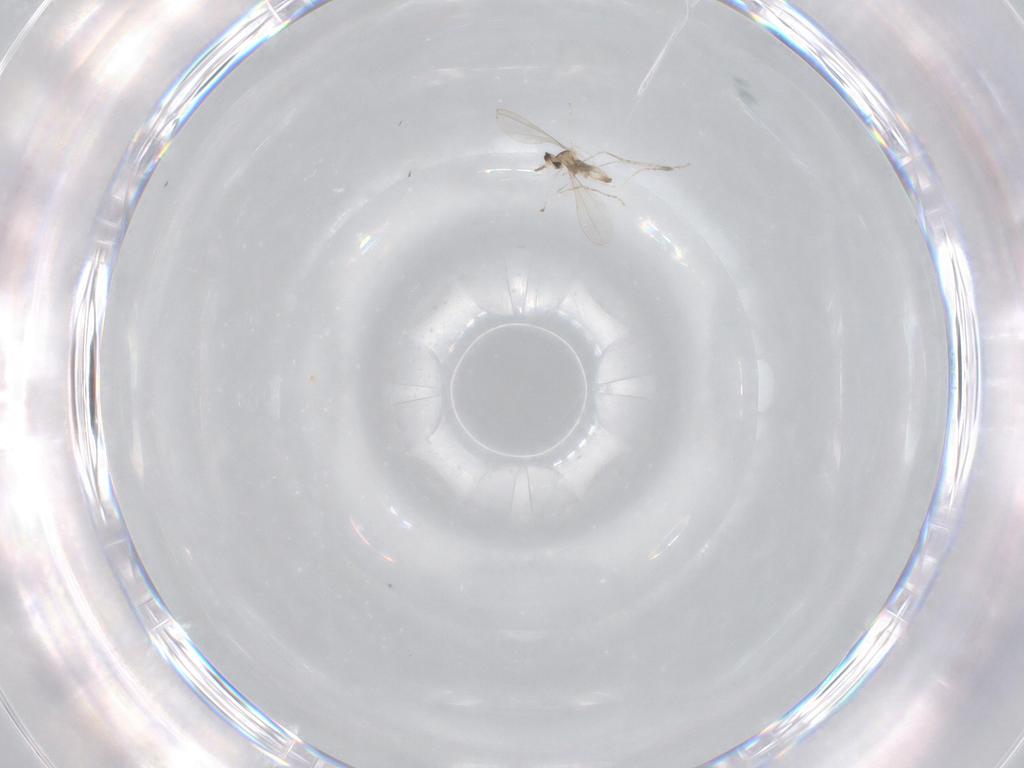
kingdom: Animalia
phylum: Arthropoda
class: Insecta
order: Diptera
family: Cecidomyiidae
